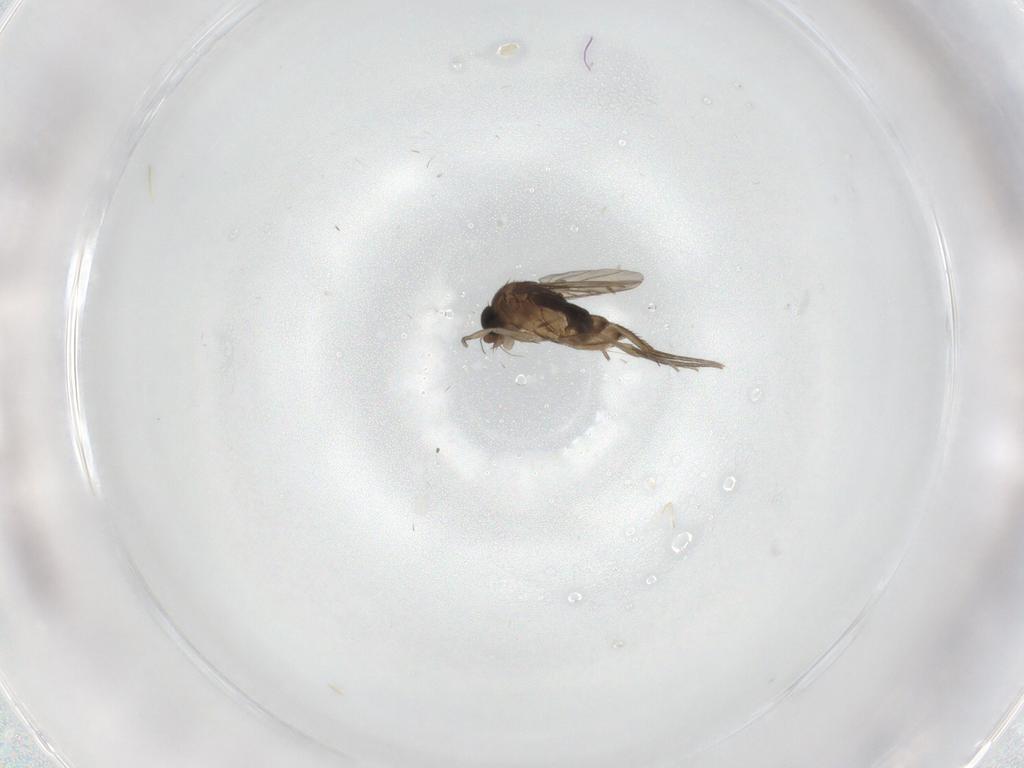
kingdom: Animalia
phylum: Arthropoda
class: Insecta
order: Diptera
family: Phoridae
